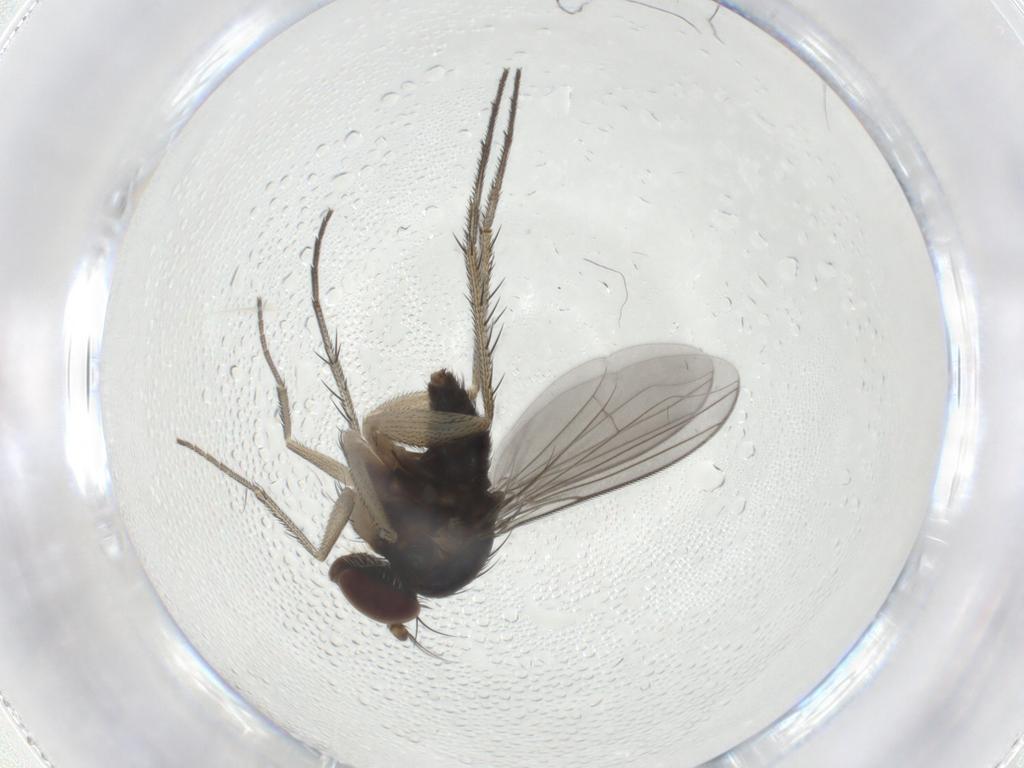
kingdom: Animalia
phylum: Arthropoda
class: Insecta
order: Diptera
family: Dolichopodidae
